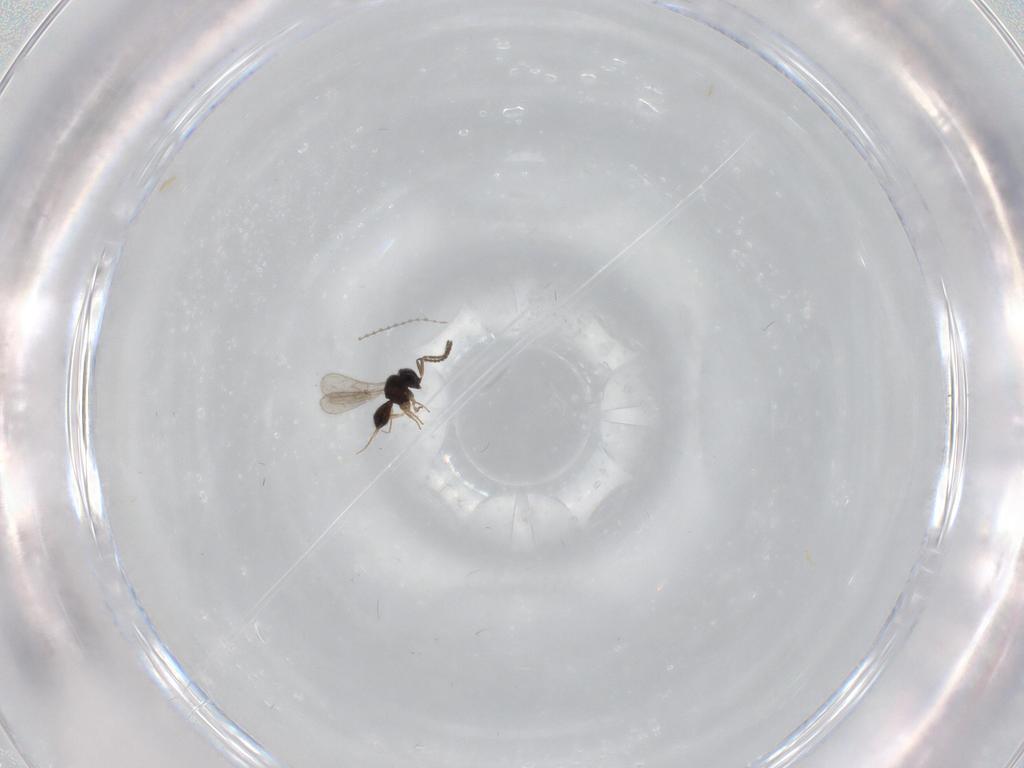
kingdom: Animalia
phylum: Arthropoda
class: Insecta
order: Hymenoptera
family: Scelionidae
